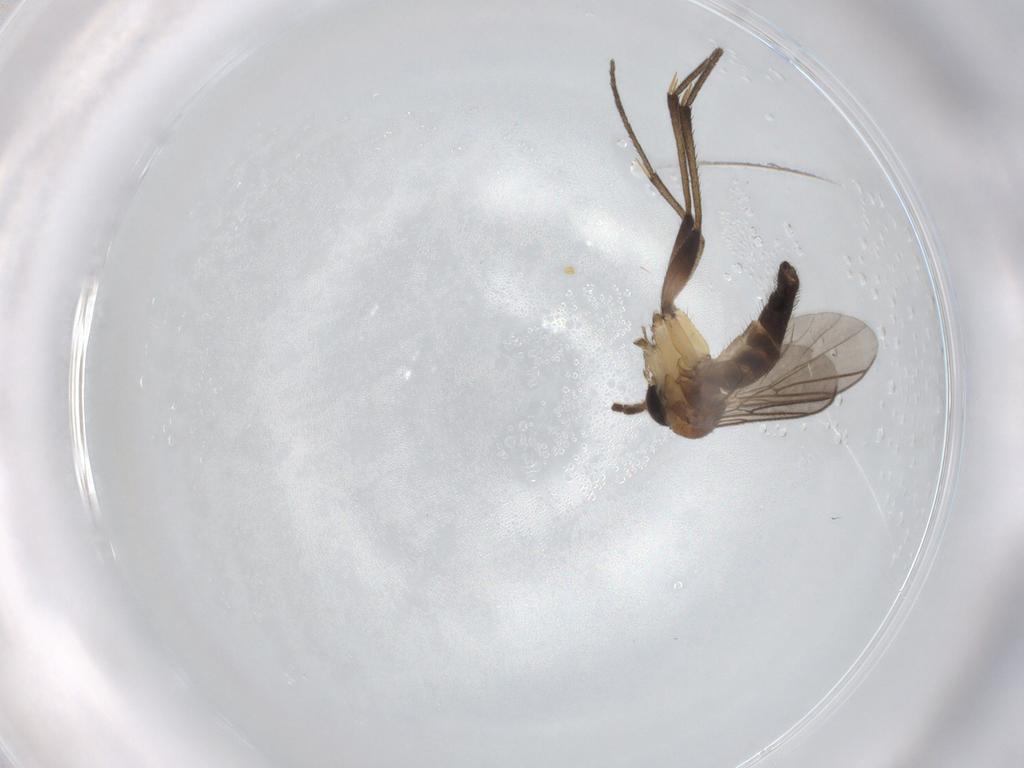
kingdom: Animalia
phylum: Arthropoda
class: Insecta
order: Diptera
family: Mycetophilidae
